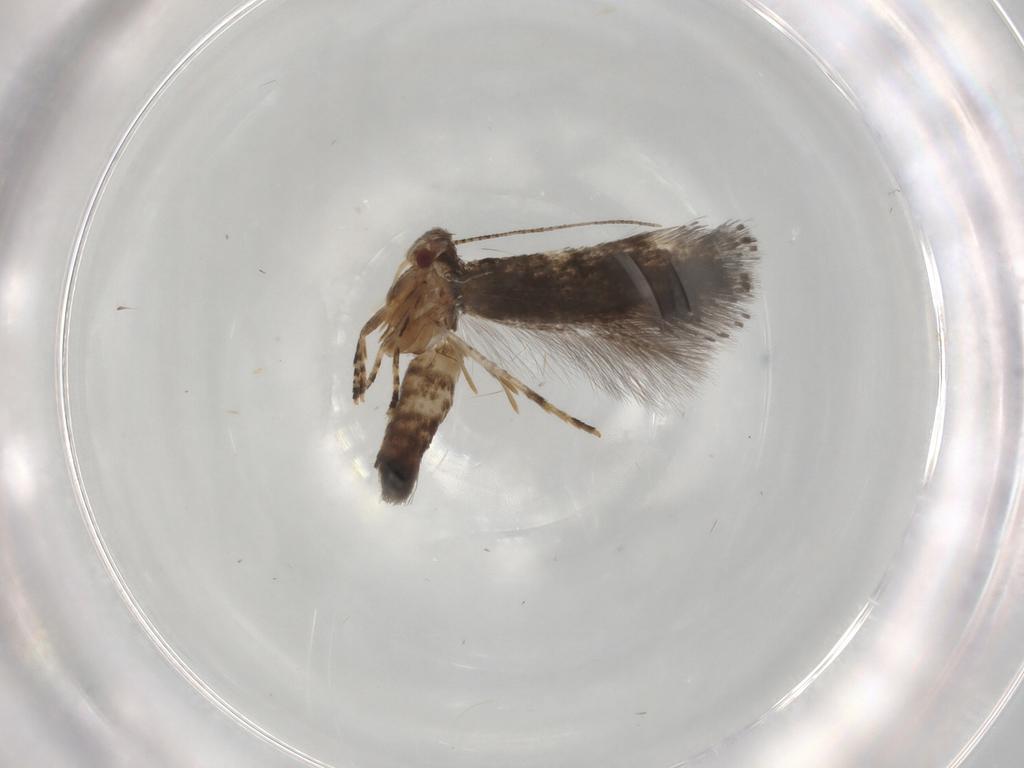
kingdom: Animalia
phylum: Arthropoda
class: Insecta
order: Lepidoptera
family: Elachistidae
